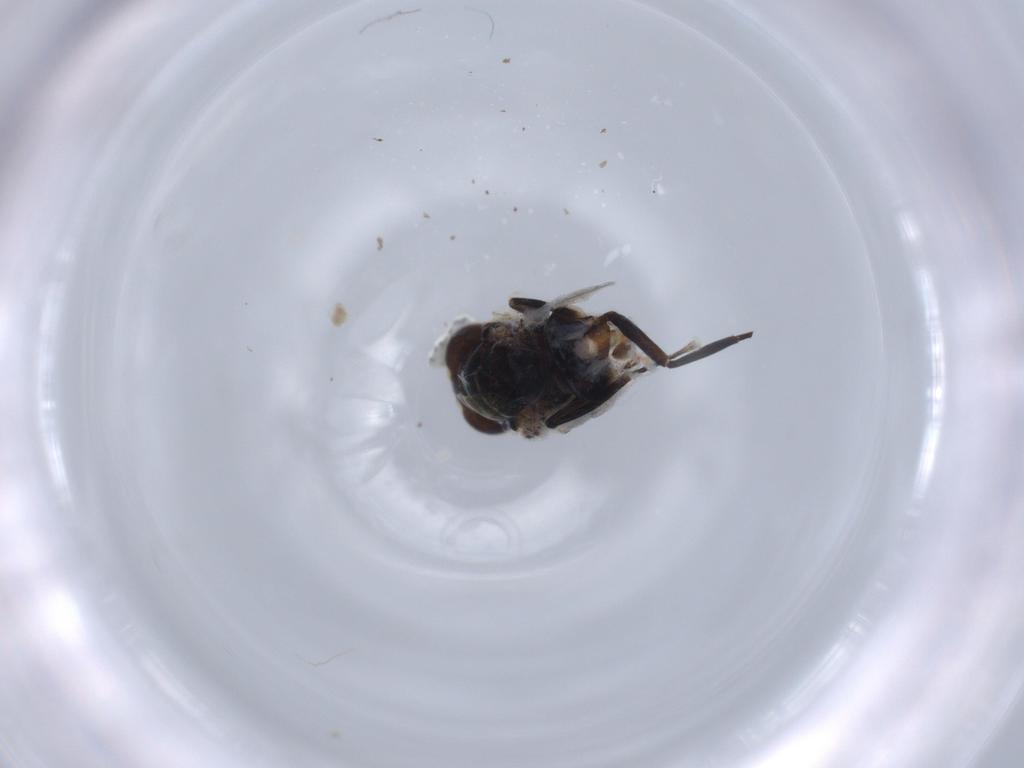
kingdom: Animalia
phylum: Arthropoda
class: Insecta
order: Hymenoptera
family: Encyrtidae
